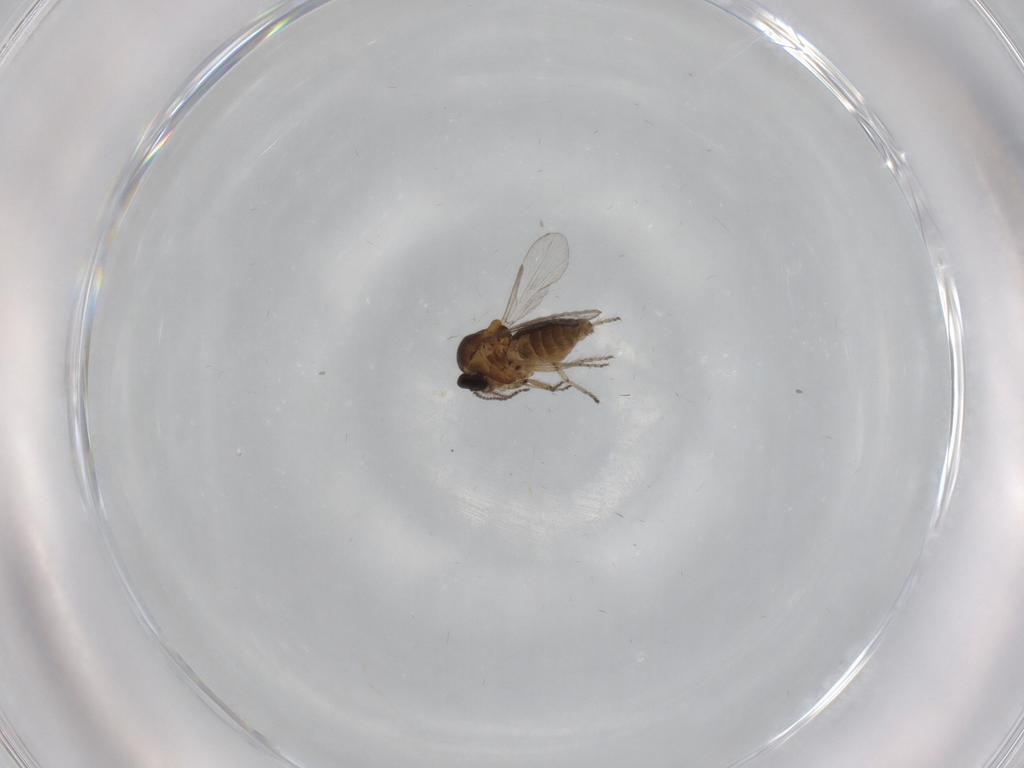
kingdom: Animalia
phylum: Arthropoda
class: Insecta
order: Diptera
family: Ceratopogonidae
